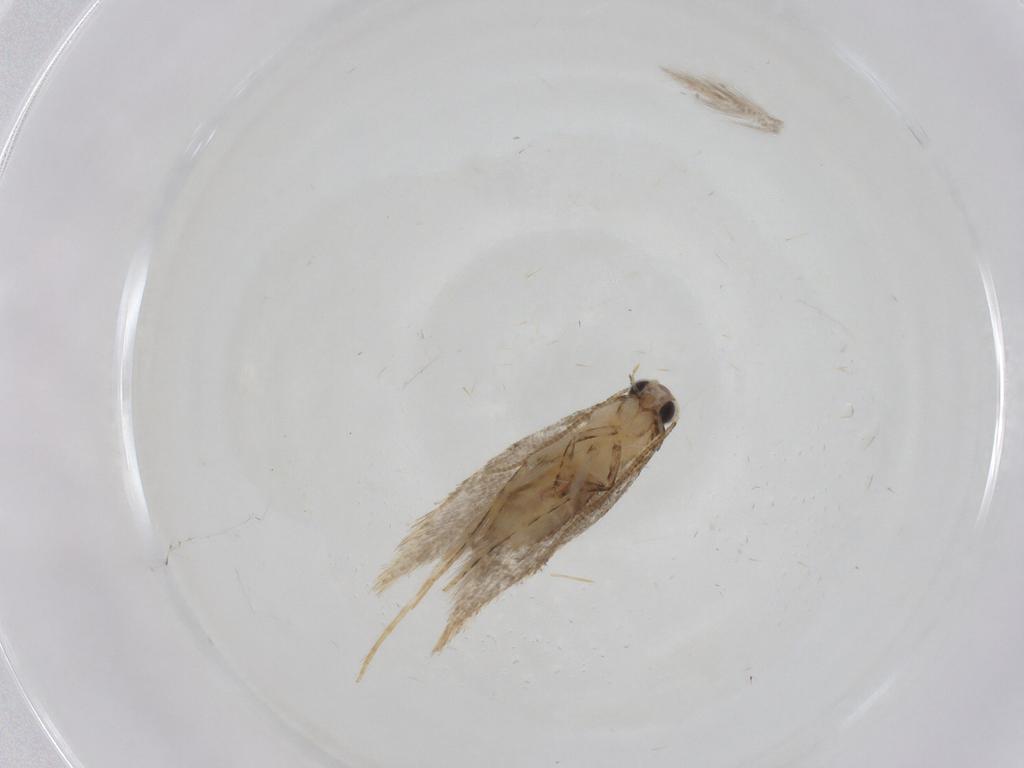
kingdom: Animalia
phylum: Arthropoda
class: Insecta
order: Lepidoptera
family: Tineidae
